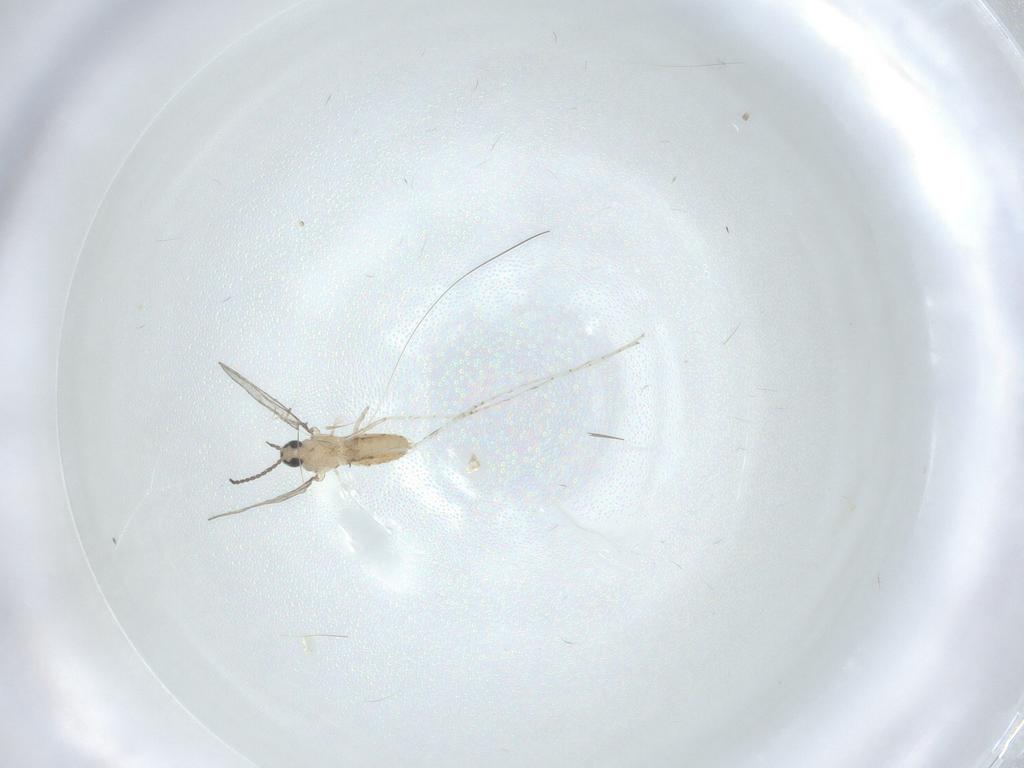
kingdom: Animalia
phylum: Arthropoda
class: Insecta
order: Diptera
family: Cecidomyiidae
